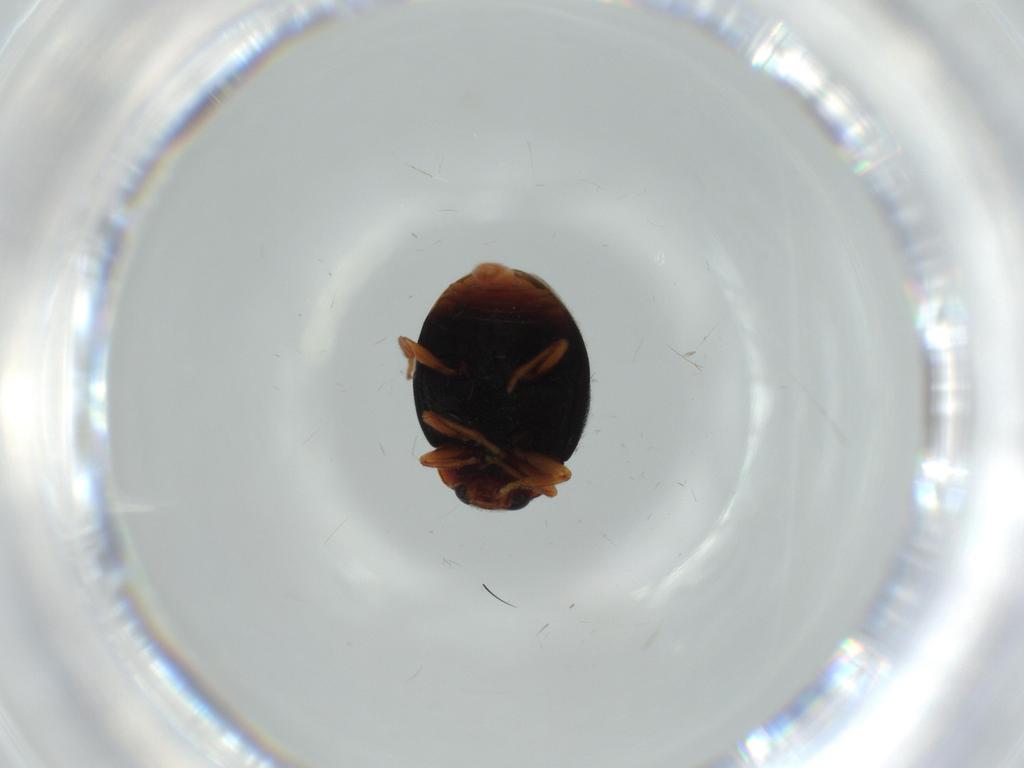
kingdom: Animalia
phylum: Arthropoda
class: Insecta
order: Coleoptera
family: Coccinellidae
